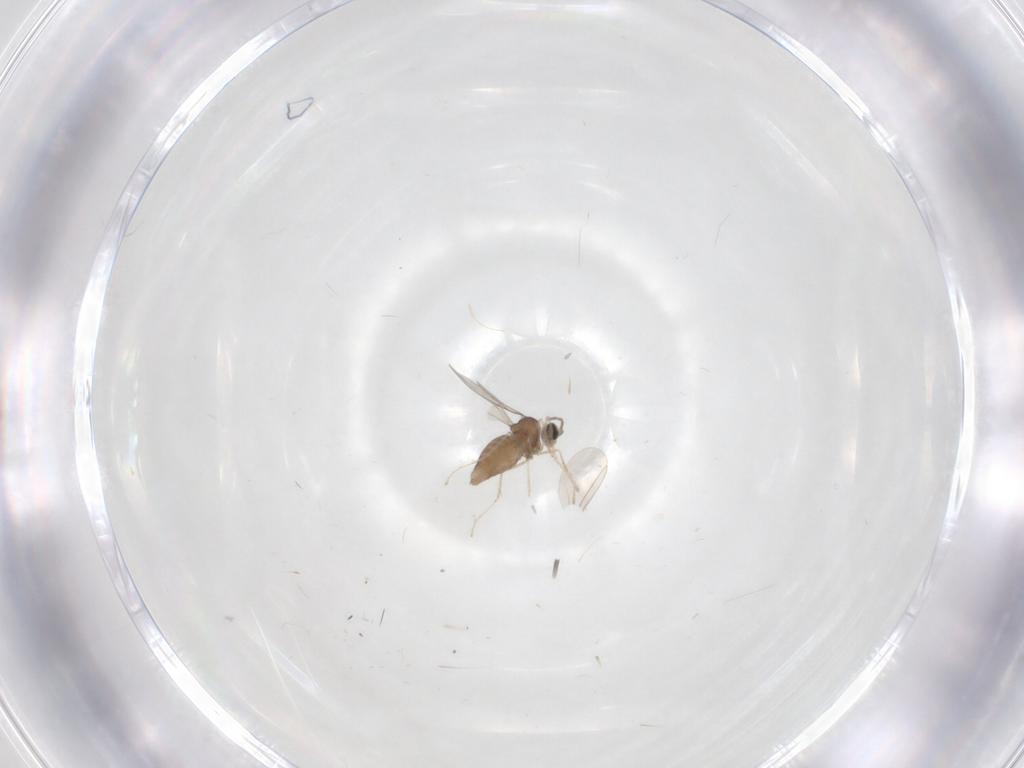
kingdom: Animalia
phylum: Arthropoda
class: Insecta
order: Diptera
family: Cecidomyiidae
